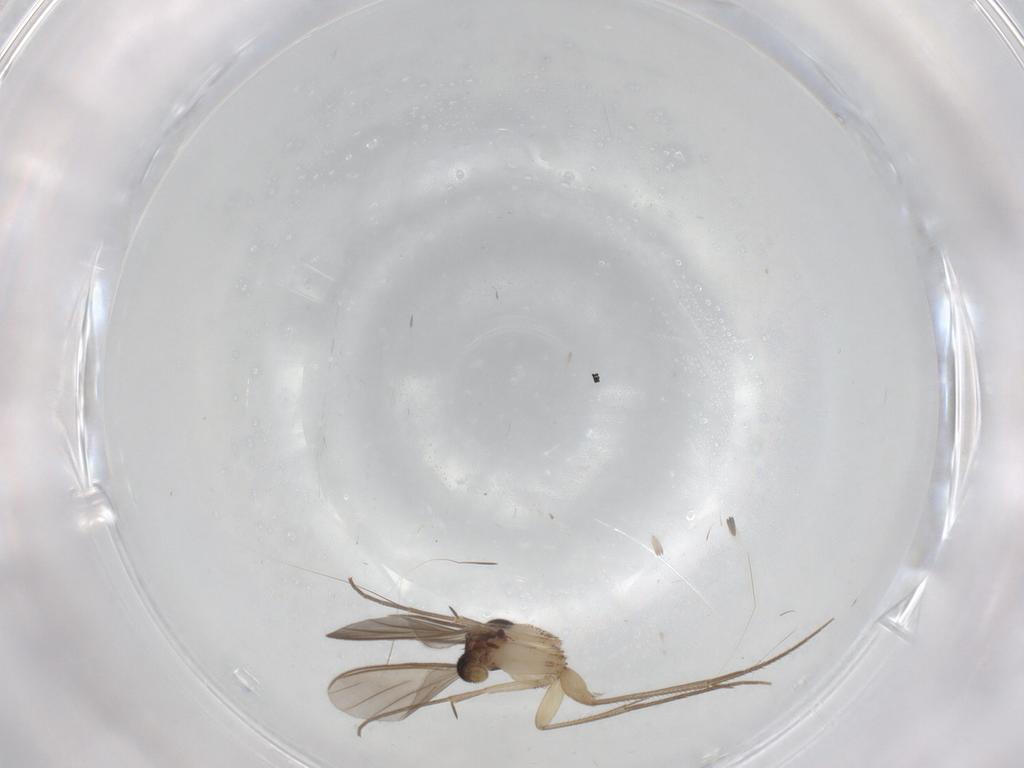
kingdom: Animalia
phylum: Arthropoda
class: Insecta
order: Diptera
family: Mycetophilidae
